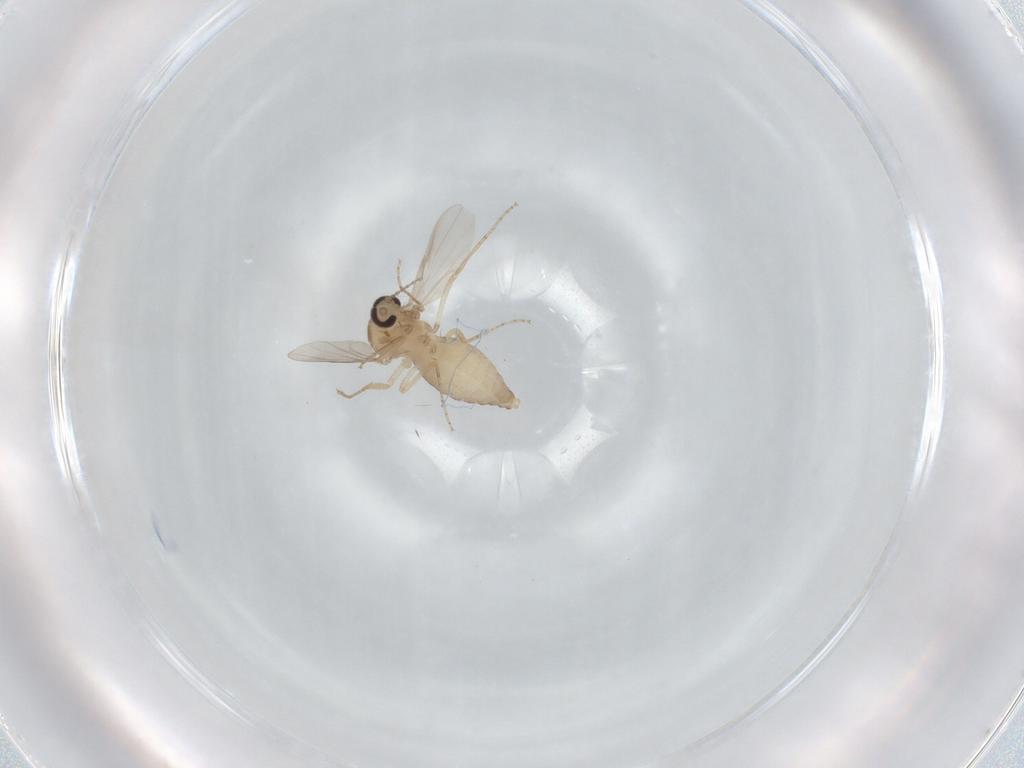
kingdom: Animalia
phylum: Arthropoda
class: Insecta
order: Diptera
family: Ceratopogonidae
